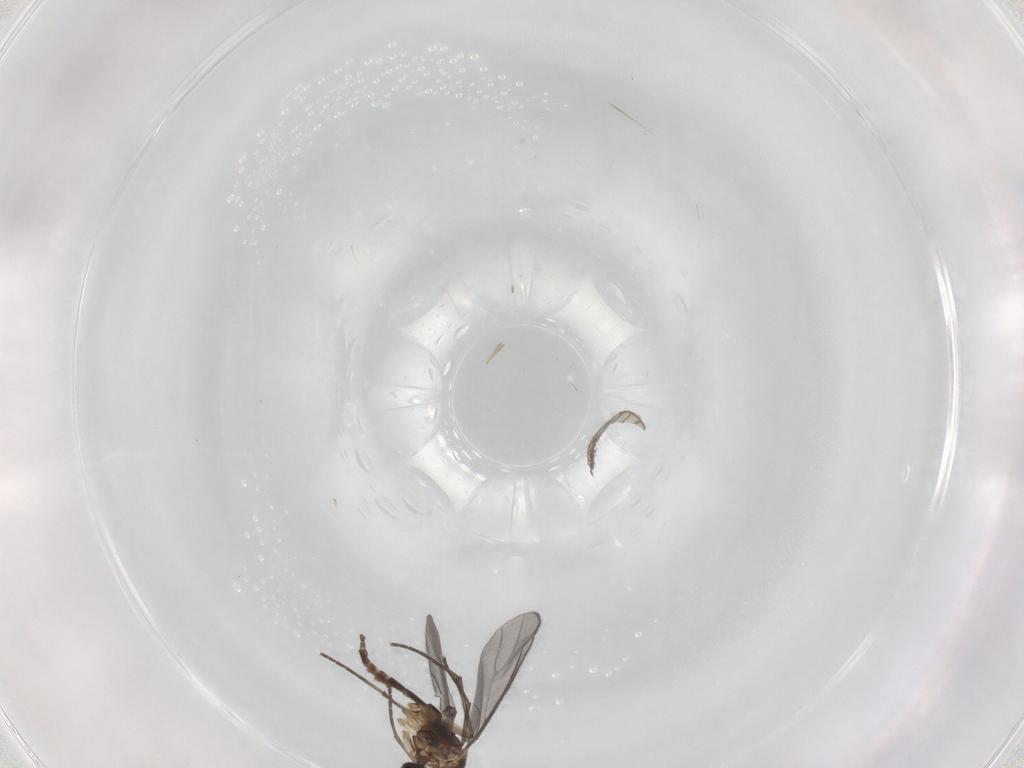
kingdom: Animalia
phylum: Arthropoda
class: Insecta
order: Diptera
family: Sciaridae
